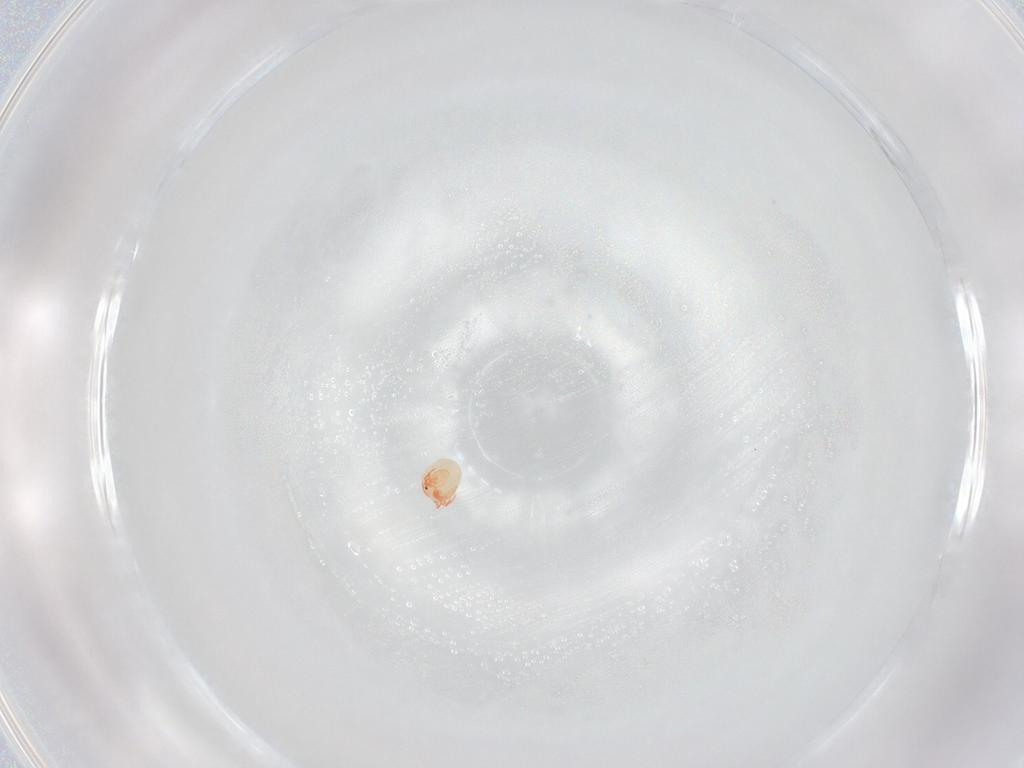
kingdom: Animalia
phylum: Arthropoda
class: Arachnida
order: Trombidiformes
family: Arrenuridae
